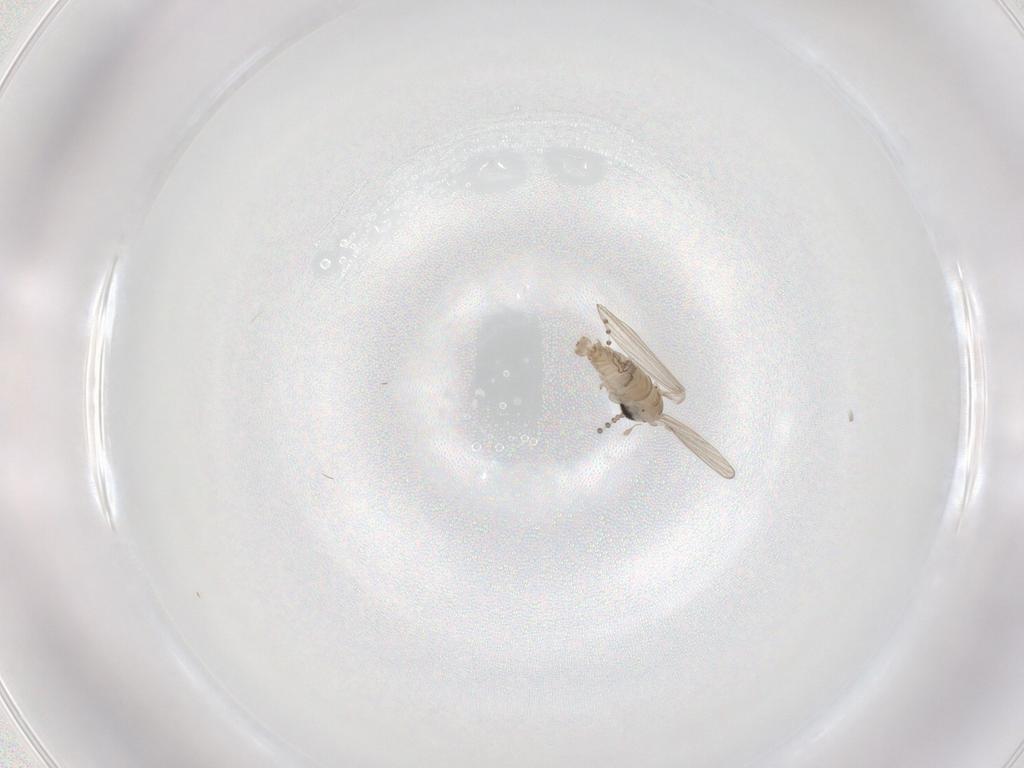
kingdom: Animalia
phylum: Arthropoda
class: Insecta
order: Diptera
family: Psychodidae
